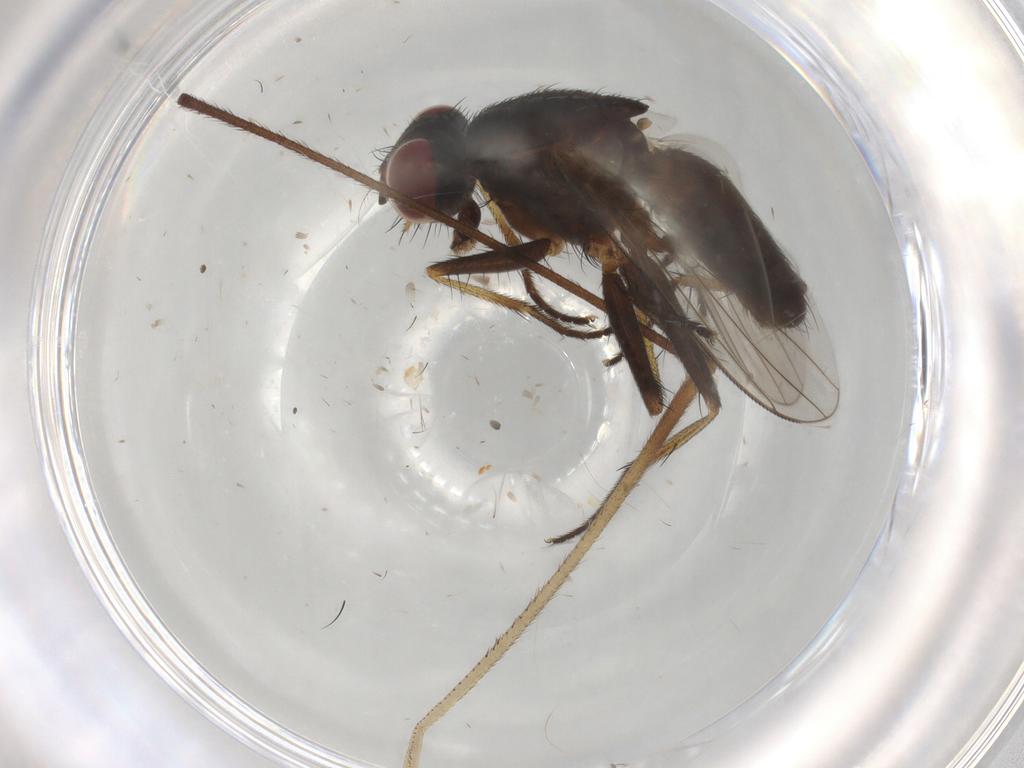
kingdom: Animalia
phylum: Arthropoda
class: Insecta
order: Diptera
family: Muscidae
